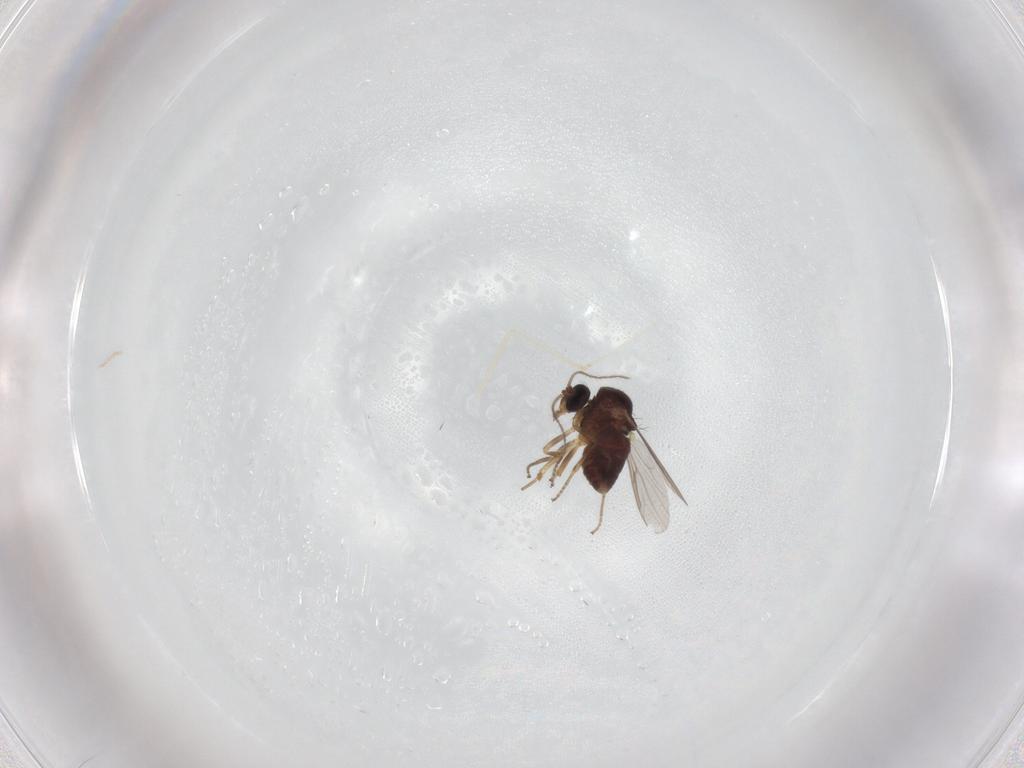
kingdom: Animalia
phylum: Arthropoda
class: Insecta
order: Diptera
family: Ceratopogonidae
